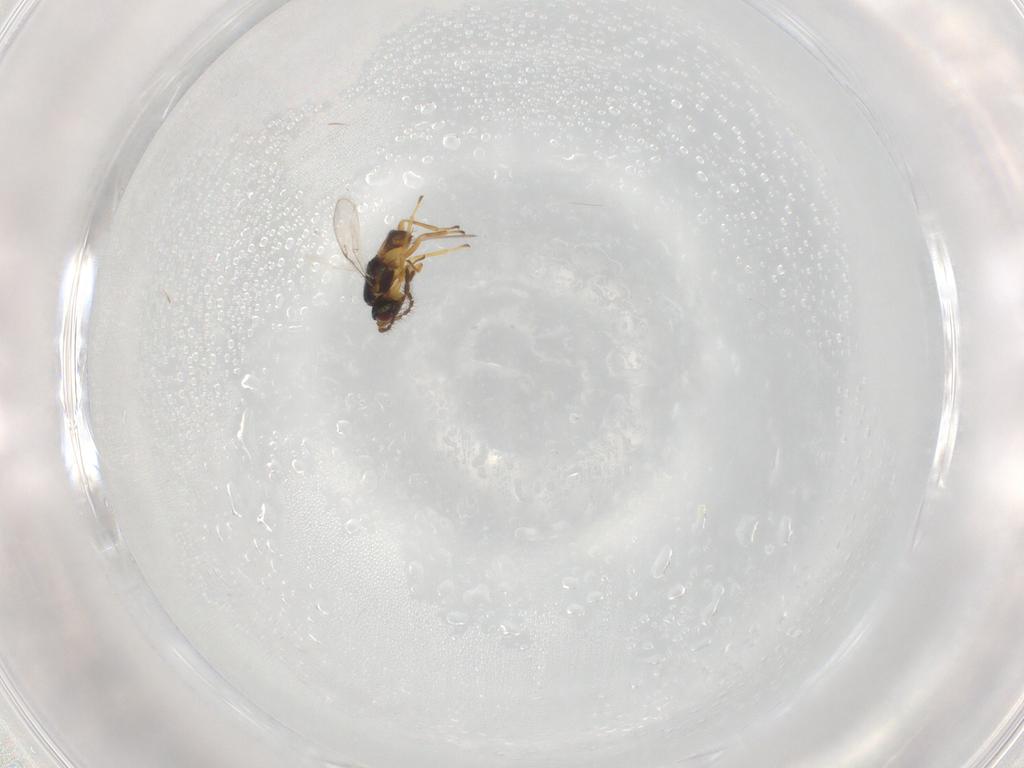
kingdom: Animalia
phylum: Arthropoda
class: Insecta
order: Hymenoptera
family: Encyrtidae
